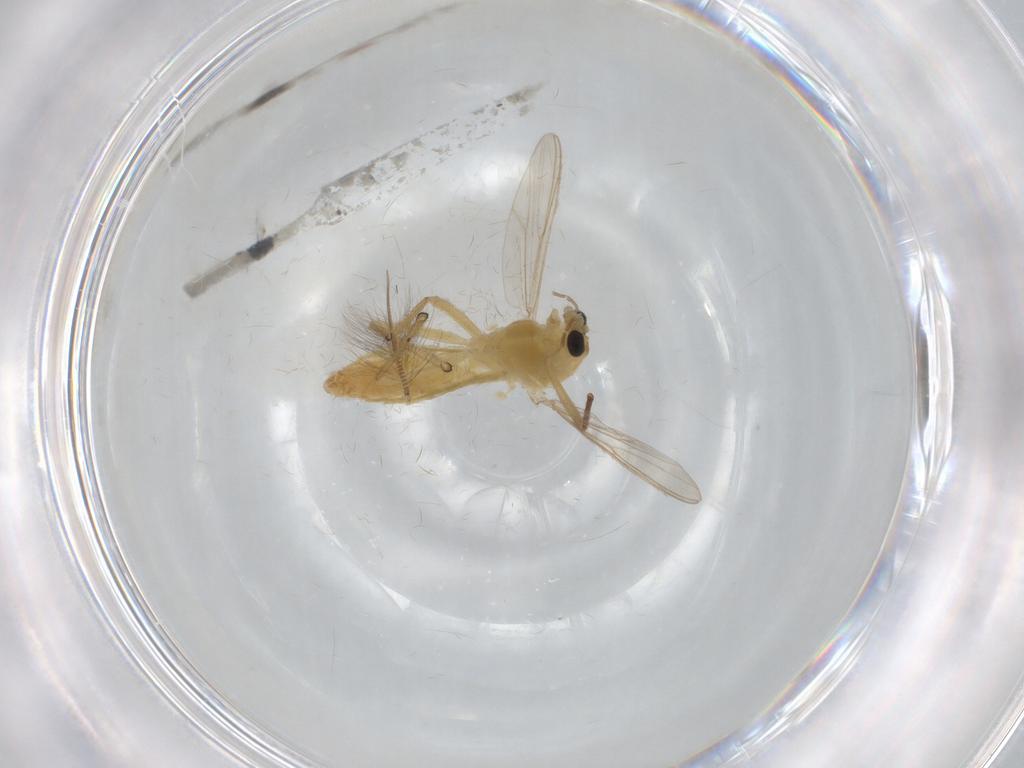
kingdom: Animalia
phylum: Arthropoda
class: Insecta
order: Diptera
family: Chironomidae
